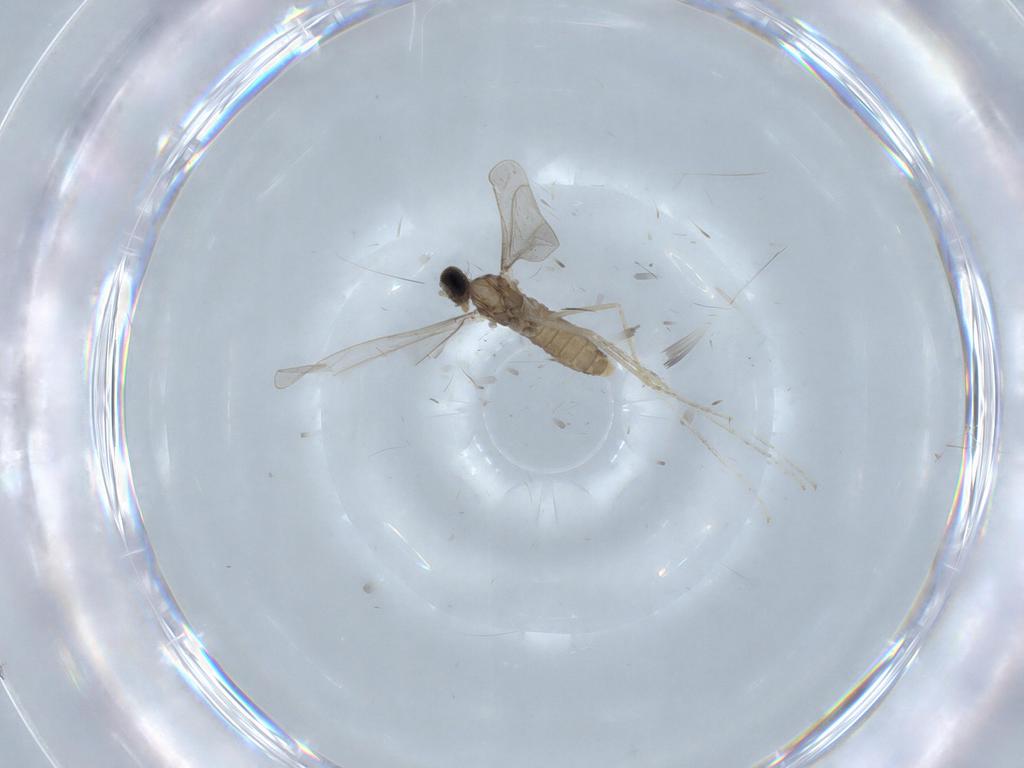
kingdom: Animalia
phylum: Arthropoda
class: Insecta
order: Diptera
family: Cecidomyiidae
